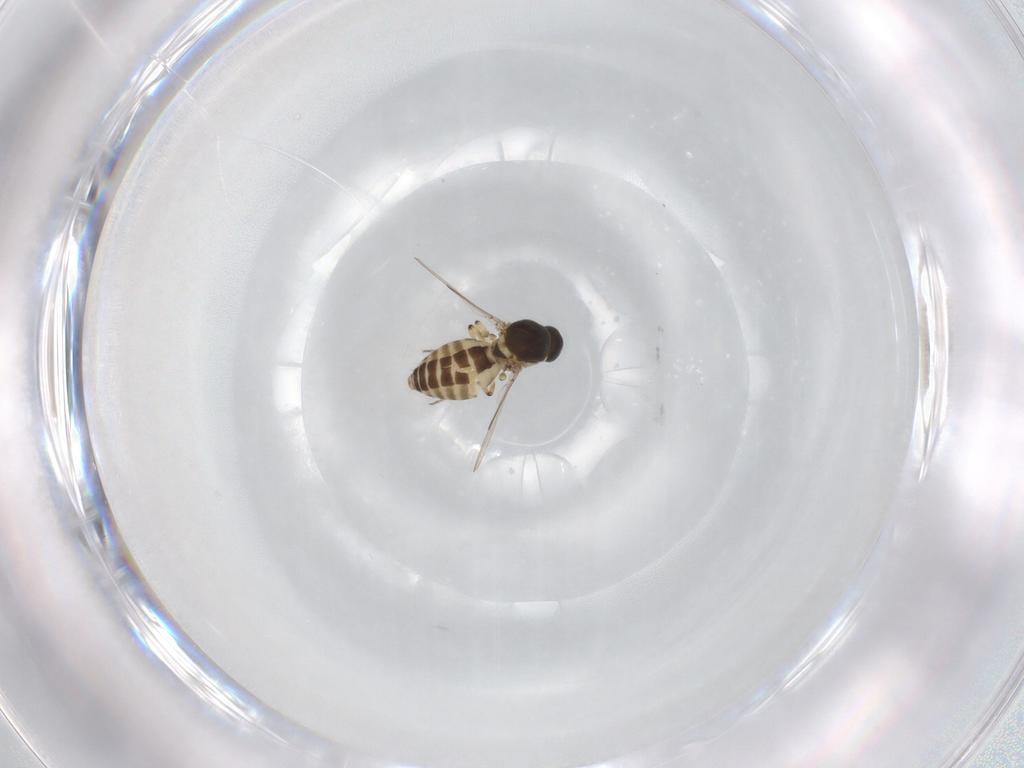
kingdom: Animalia
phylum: Arthropoda
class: Insecta
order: Diptera
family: Ceratopogonidae
